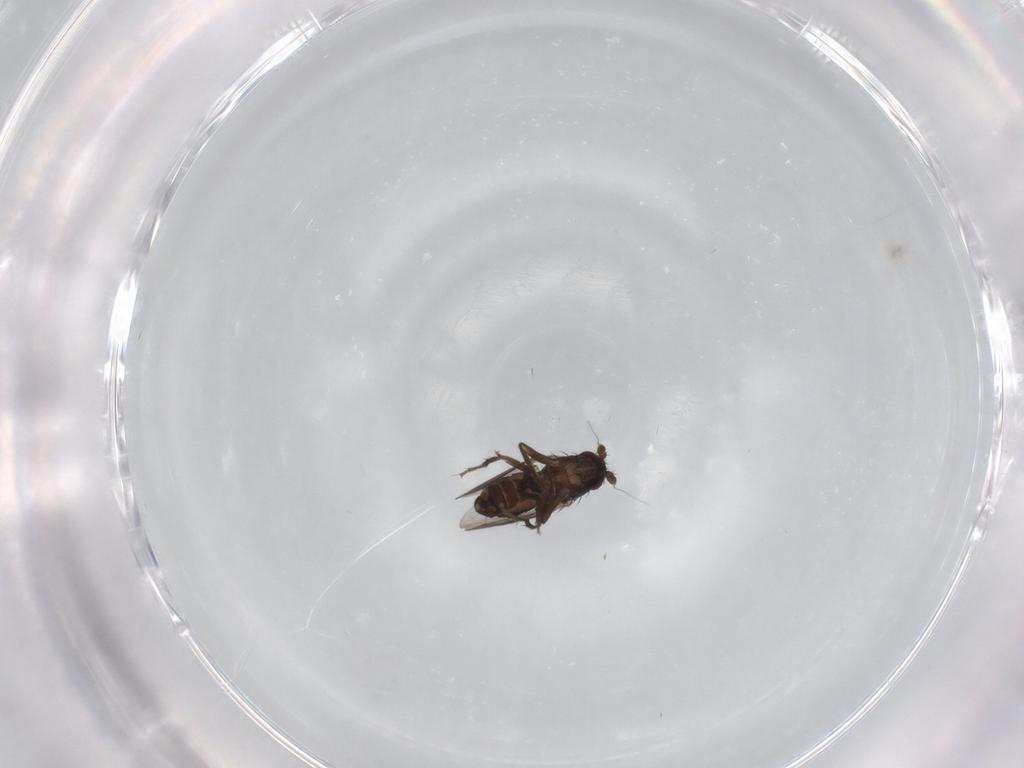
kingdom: Animalia
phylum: Arthropoda
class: Insecta
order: Diptera
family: Sphaeroceridae
